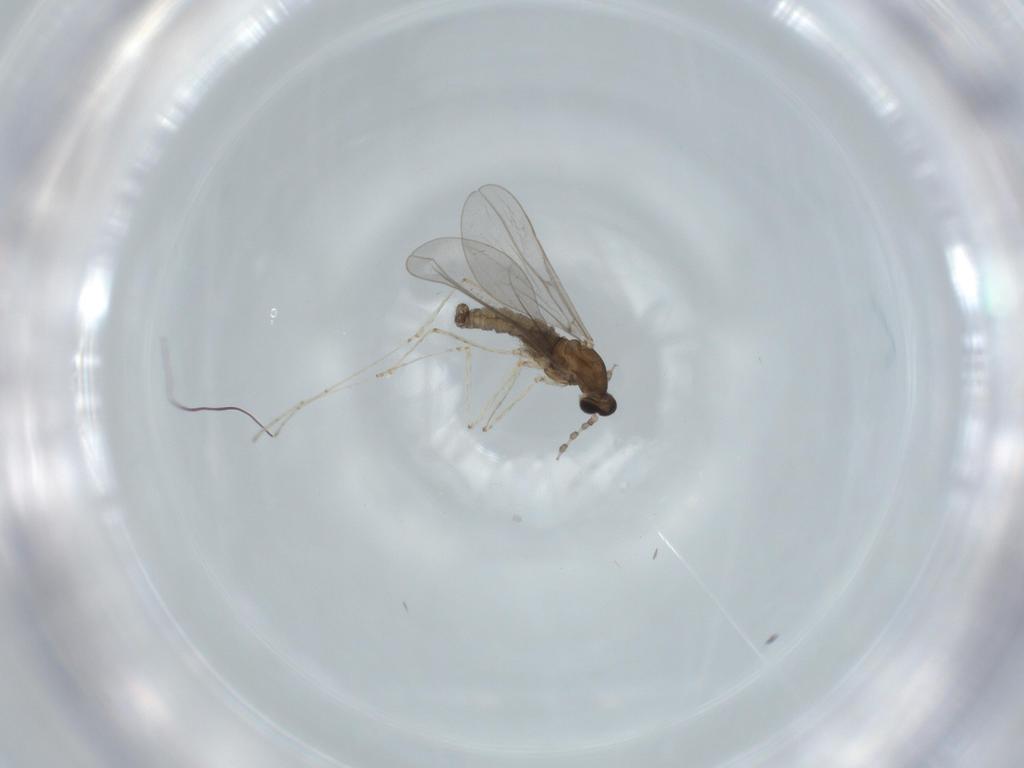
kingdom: Animalia
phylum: Arthropoda
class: Insecta
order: Diptera
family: Cecidomyiidae
